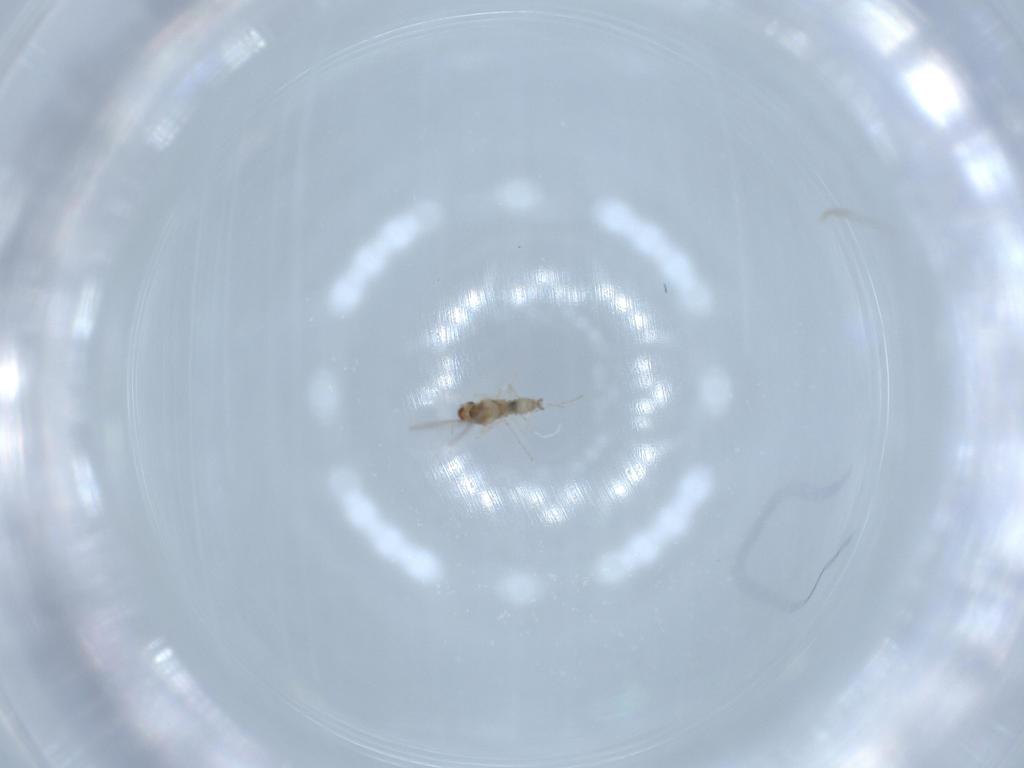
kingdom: Animalia
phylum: Arthropoda
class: Insecta
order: Diptera
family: Cecidomyiidae
